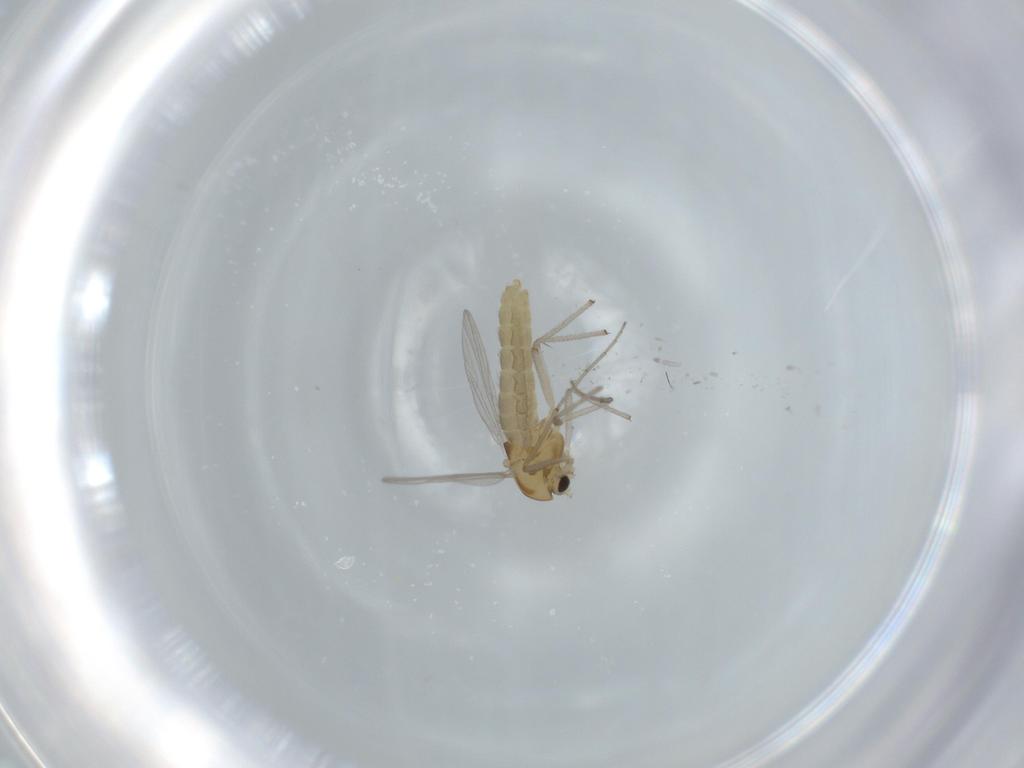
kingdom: Animalia
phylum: Arthropoda
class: Insecta
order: Diptera
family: Chironomidae
